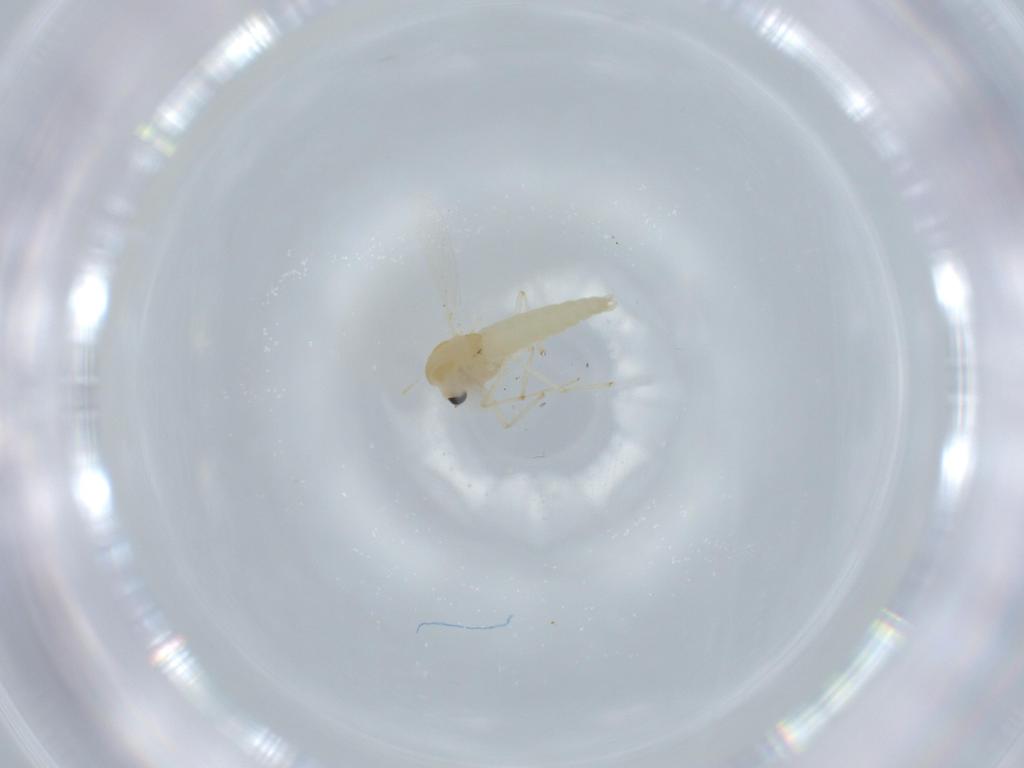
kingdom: Animalia
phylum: Arthropoda
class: Insecta
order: Diptera
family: Chironomidae
